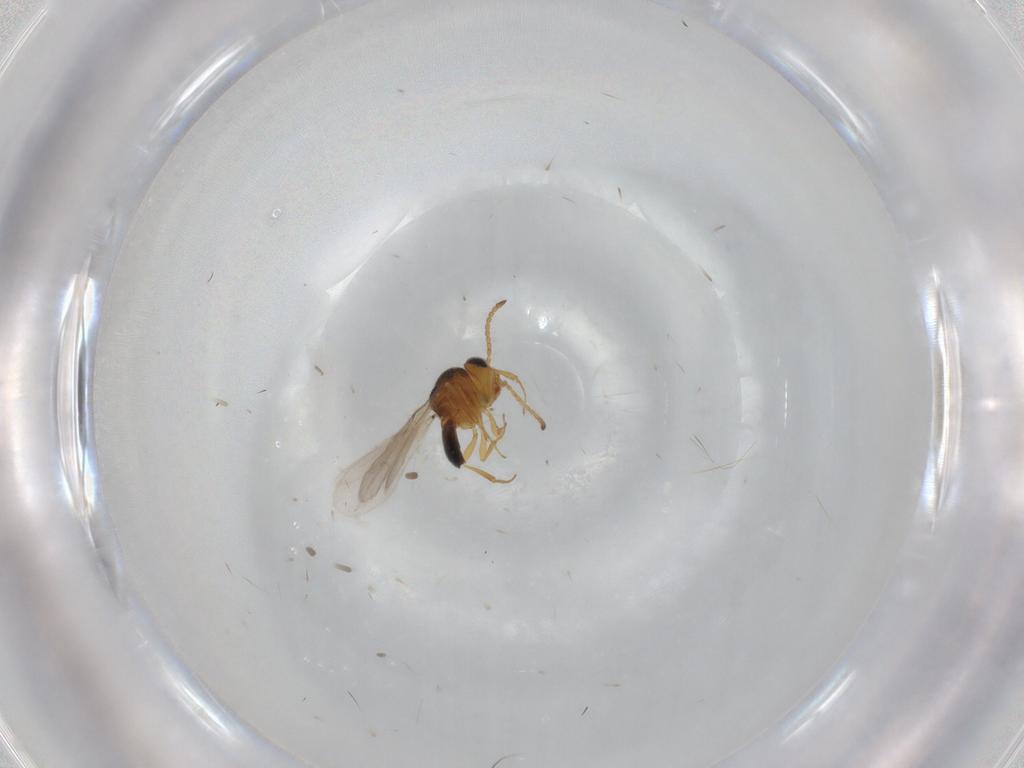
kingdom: Animalia
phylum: Arthropoda
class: Insecta
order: Hymenoptera
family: Scelionidae
